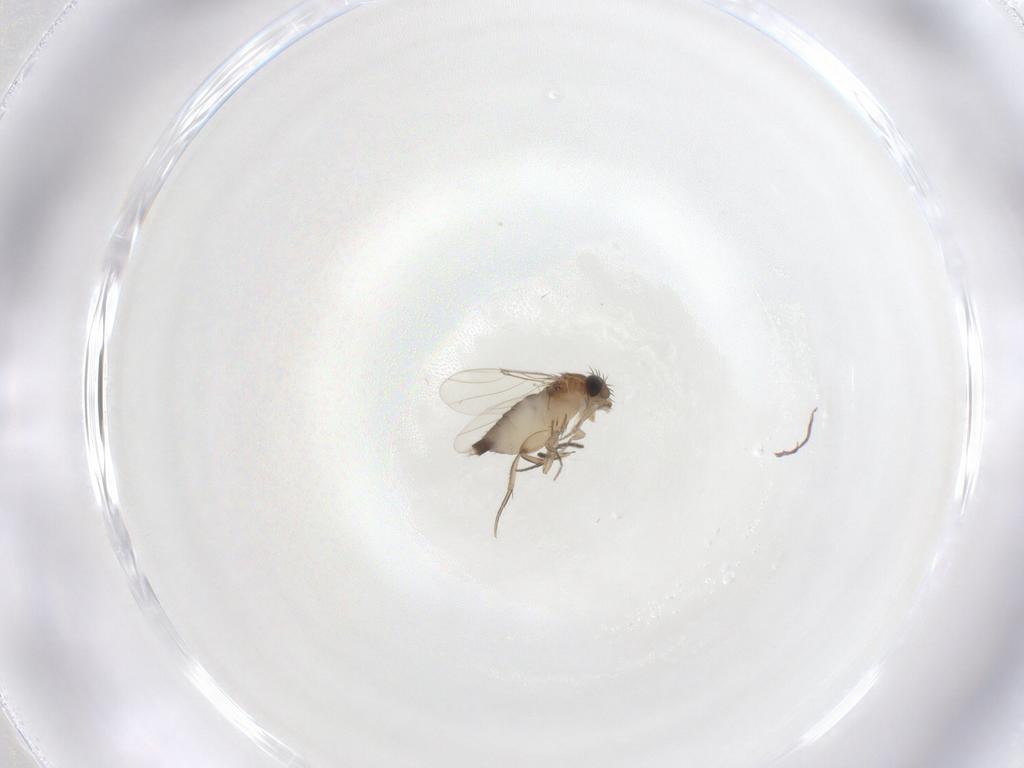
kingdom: Animalia
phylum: Arthropoda
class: Insecta
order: Diptera
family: Phoridae
